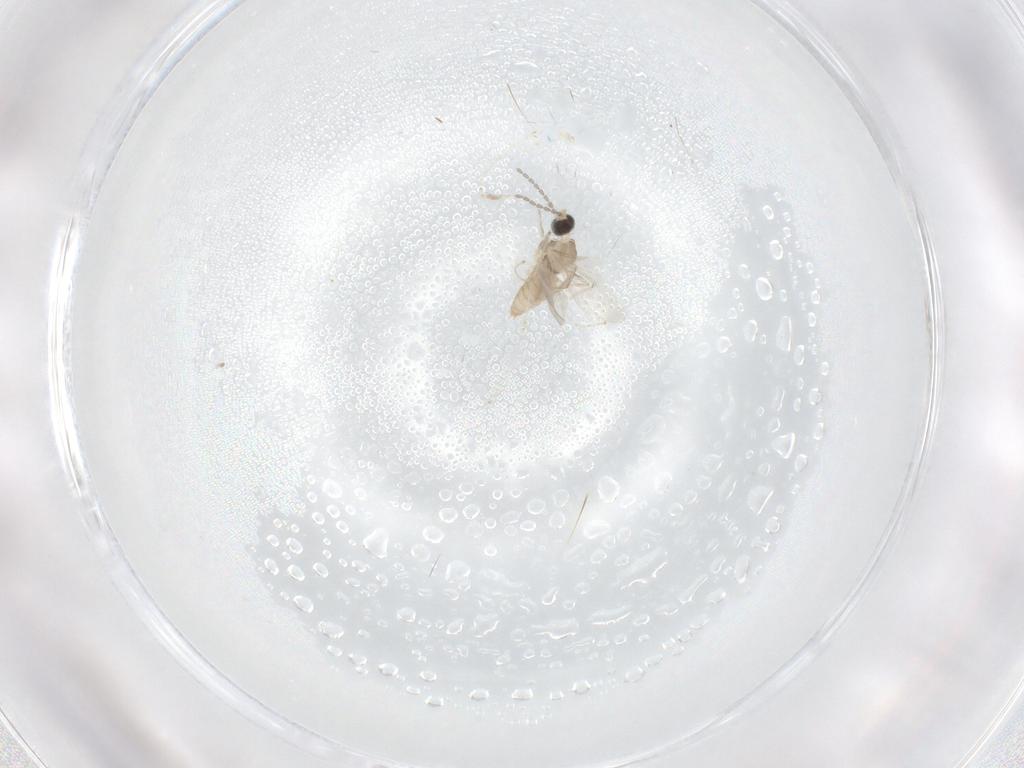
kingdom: Animalia
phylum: Arthropoda
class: Insecta
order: Diptera
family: Cecidomyiidae
